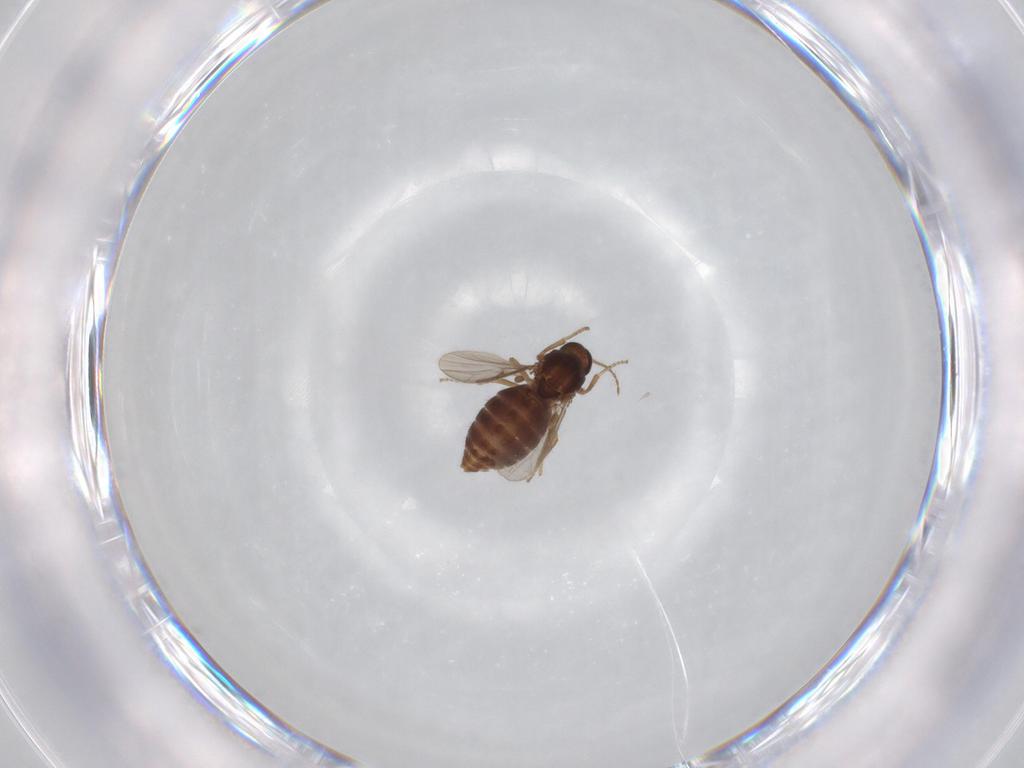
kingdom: Animalia
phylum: Arthropoda
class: Insecta
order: Diptera
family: Ceratopogonidae
